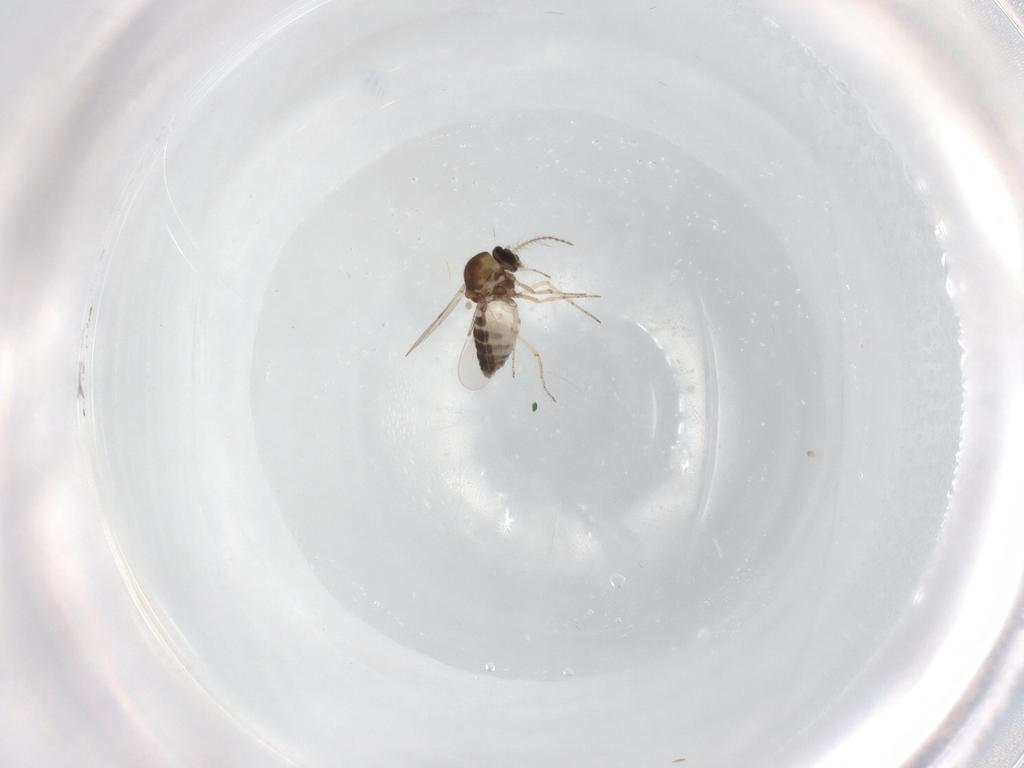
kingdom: Animalia
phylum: Arthropoda
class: Insecta
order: Diptera
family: Ceratopogonidae
